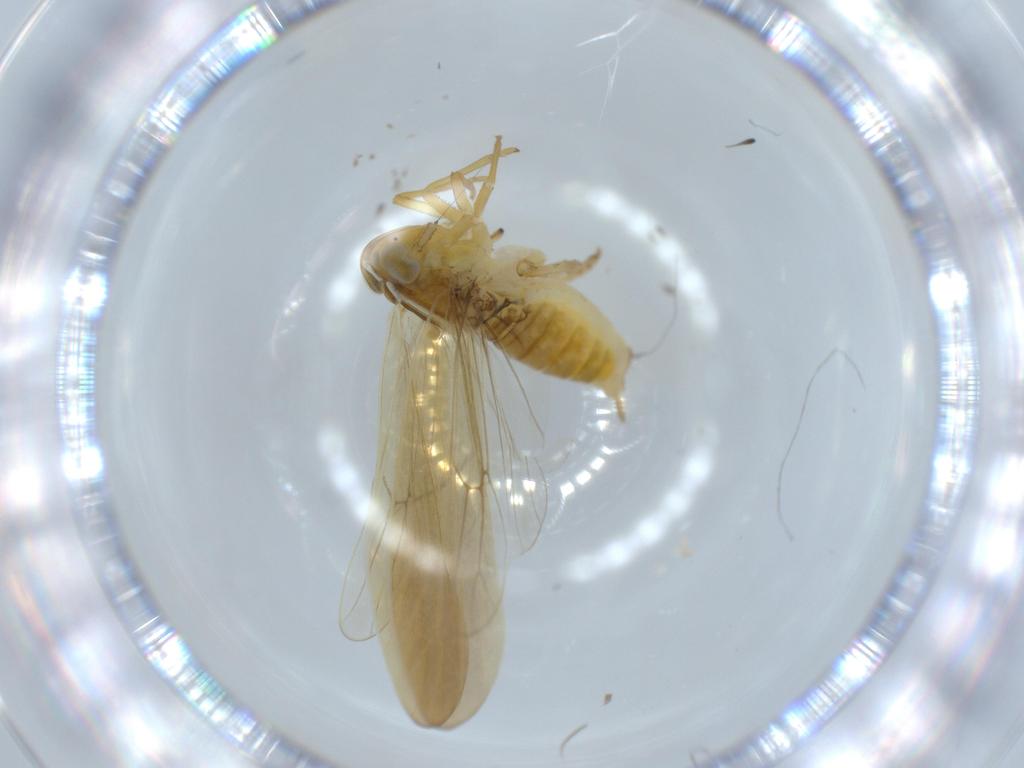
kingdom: Animalia
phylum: Arthropoda
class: Insecta
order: Hemiptera
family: Delphacidae
